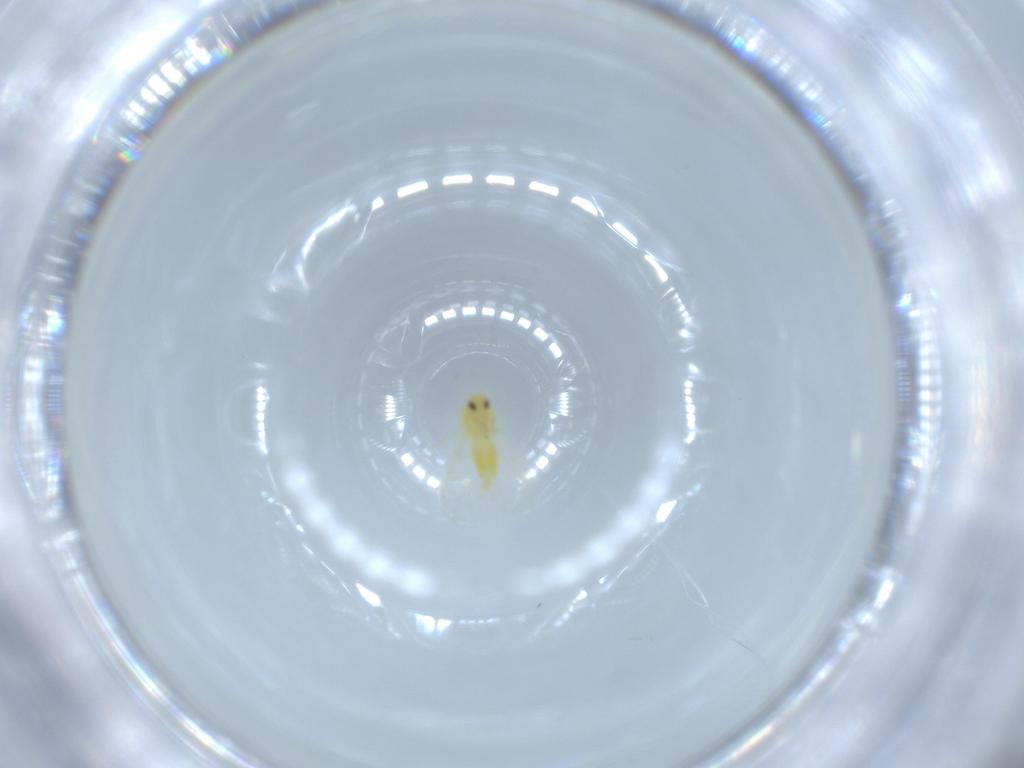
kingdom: Animalia
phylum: Arthropoda
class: Insecta
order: Hemiptera
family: Aleyrodidae
